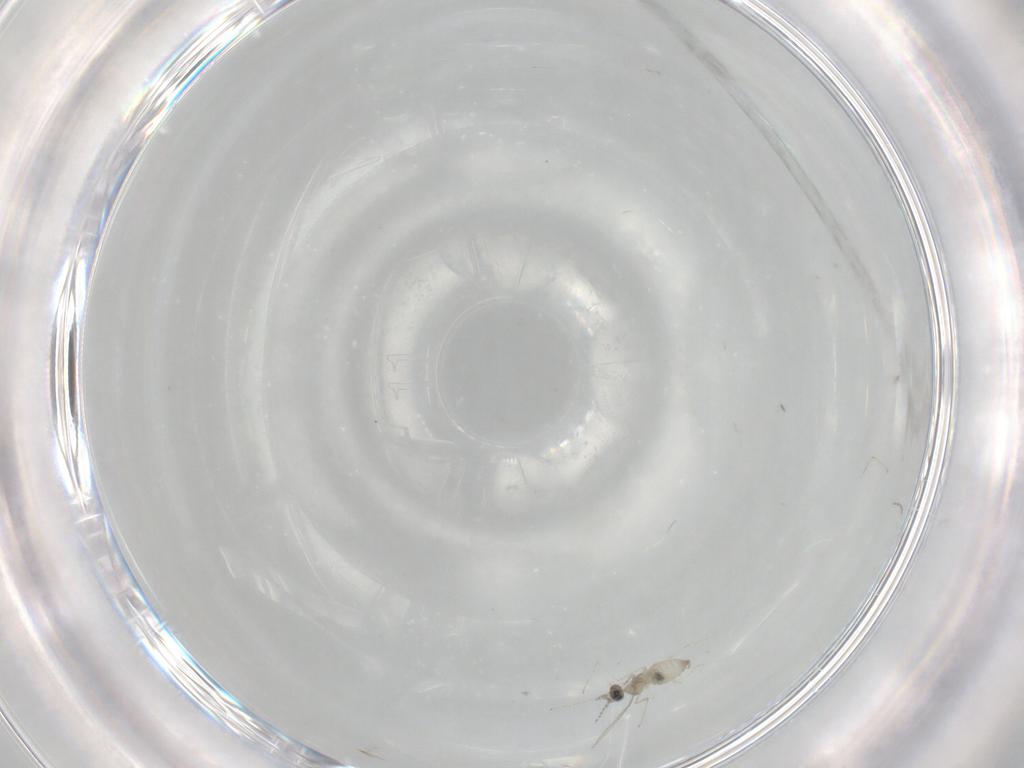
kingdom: Animalia
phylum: Arthropoda
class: Insecta
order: Diptera
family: Cecidomyiidae
